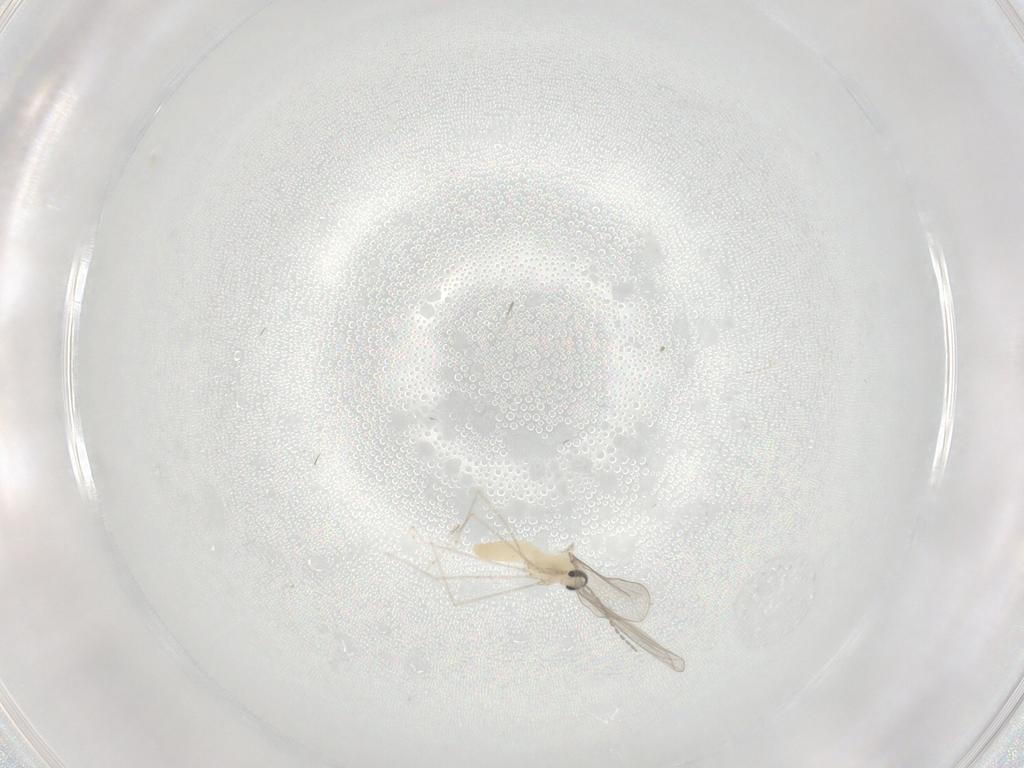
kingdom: Animalia
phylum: Arthropoda
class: Insecta
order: Diptera
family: Cecidomyiidae
